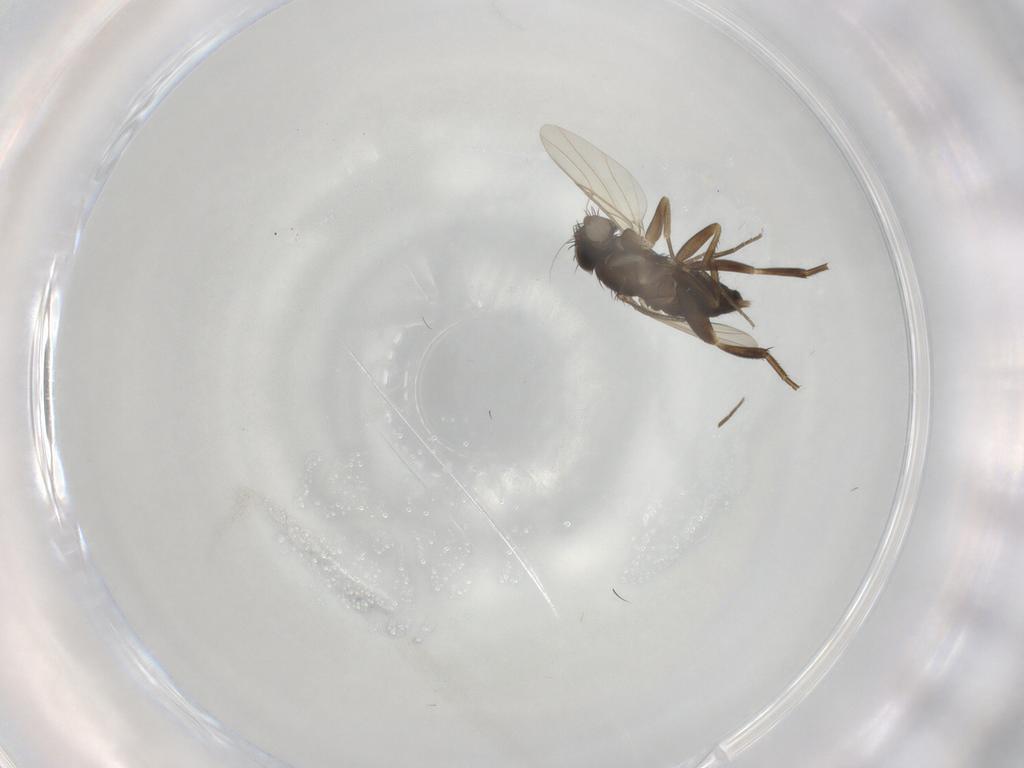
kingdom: Animalia
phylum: Arthropoda
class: Insecta
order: Diptera
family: Phoridae
